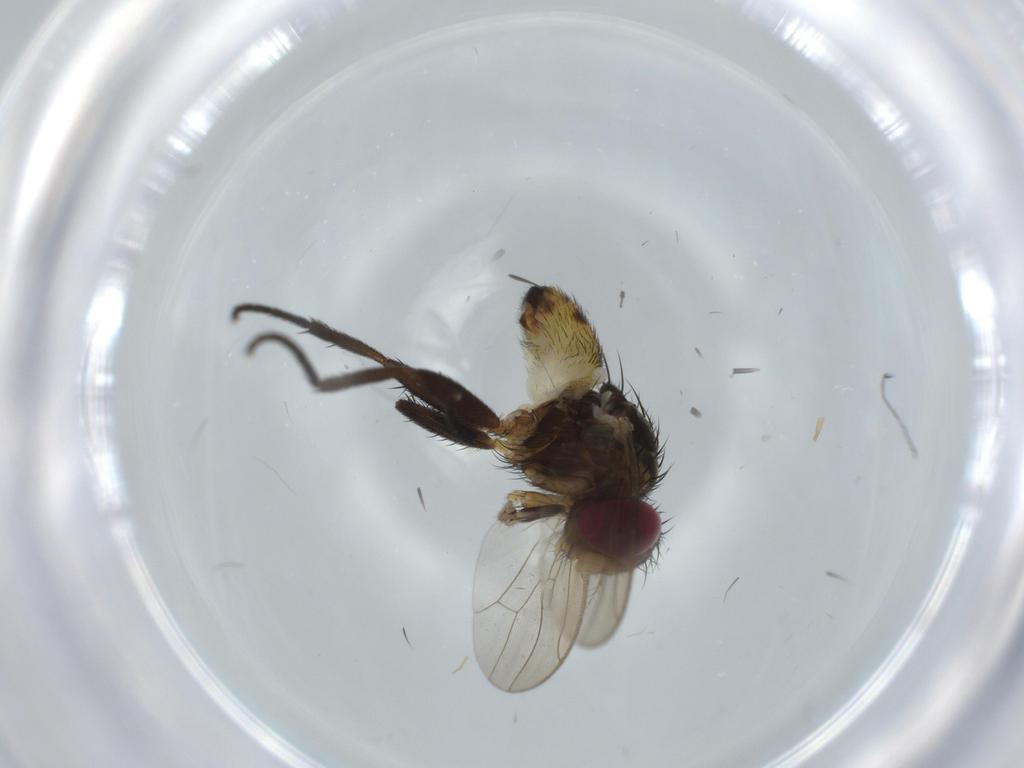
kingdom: Animalia
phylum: Arthropoda
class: Insecta
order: Diptera
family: Anthomyiidae
